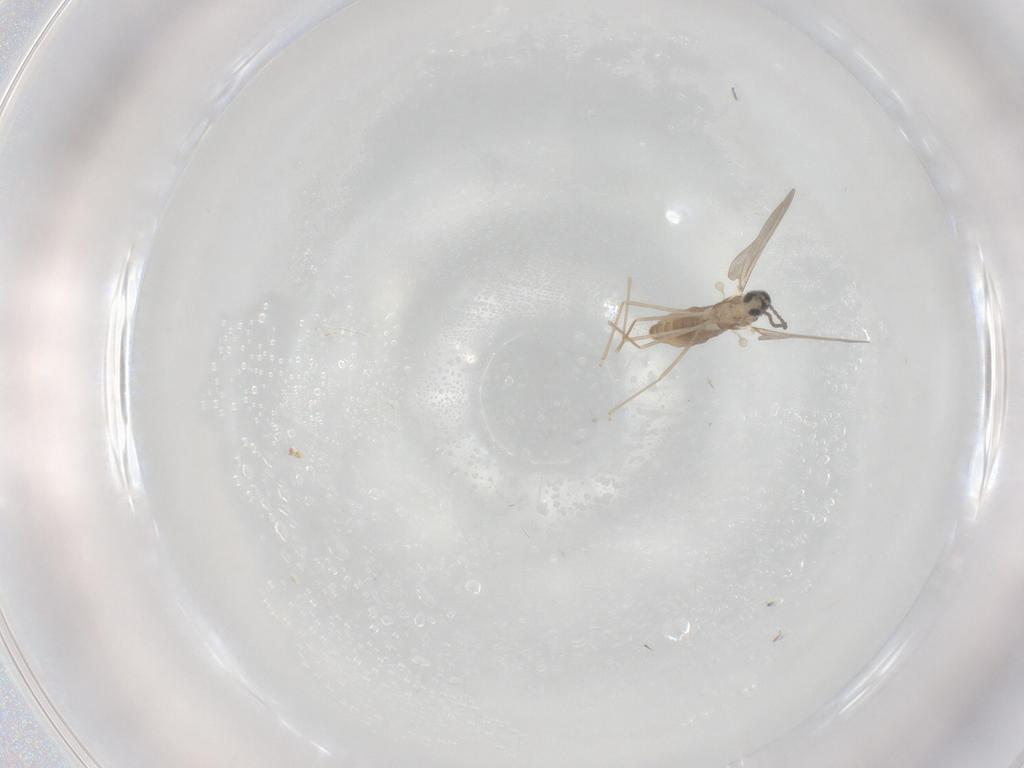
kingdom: Animalia
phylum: Arthropoda
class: Insecta
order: Diptera
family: Cecidomyiidae
